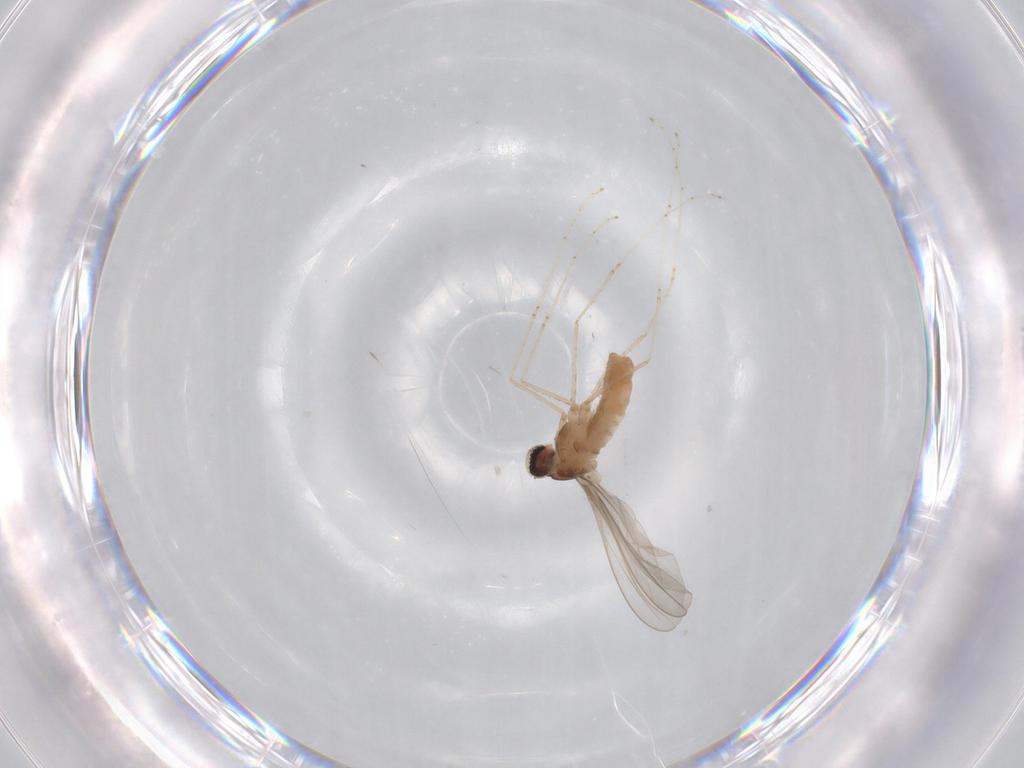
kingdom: Animalia
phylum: Arthropoda
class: Insecta
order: Diptera
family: Cecidomyiidae
